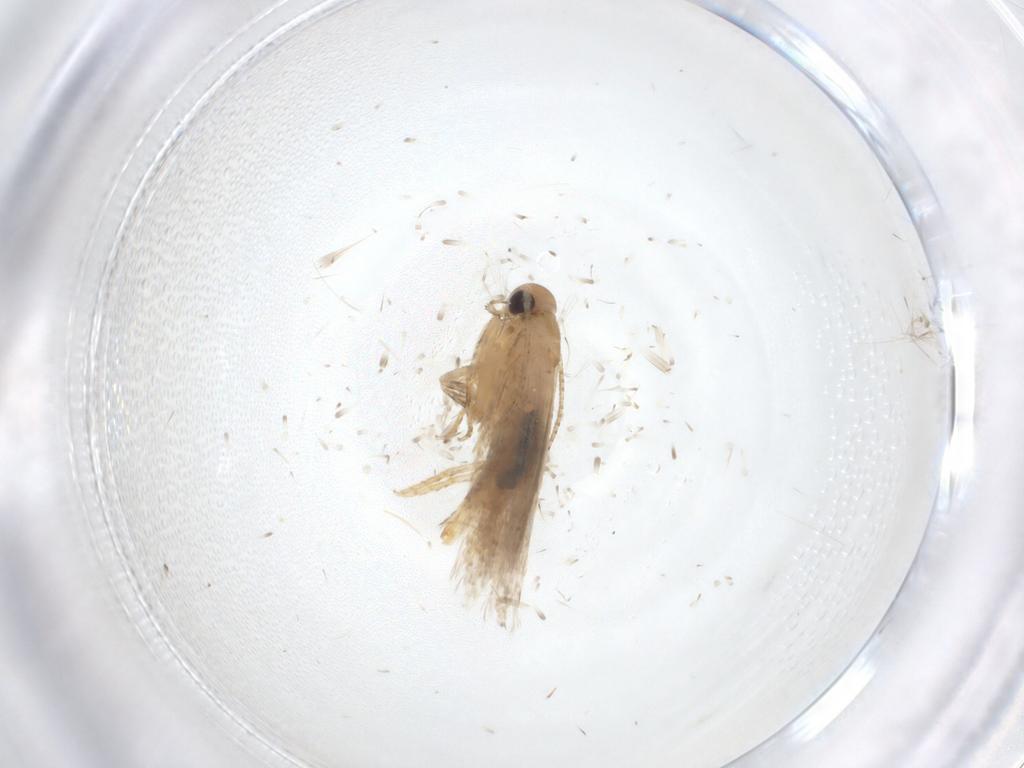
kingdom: Animalia
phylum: Arthropoda
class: Insecta
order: Lepidoptera
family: Gelechiidae
